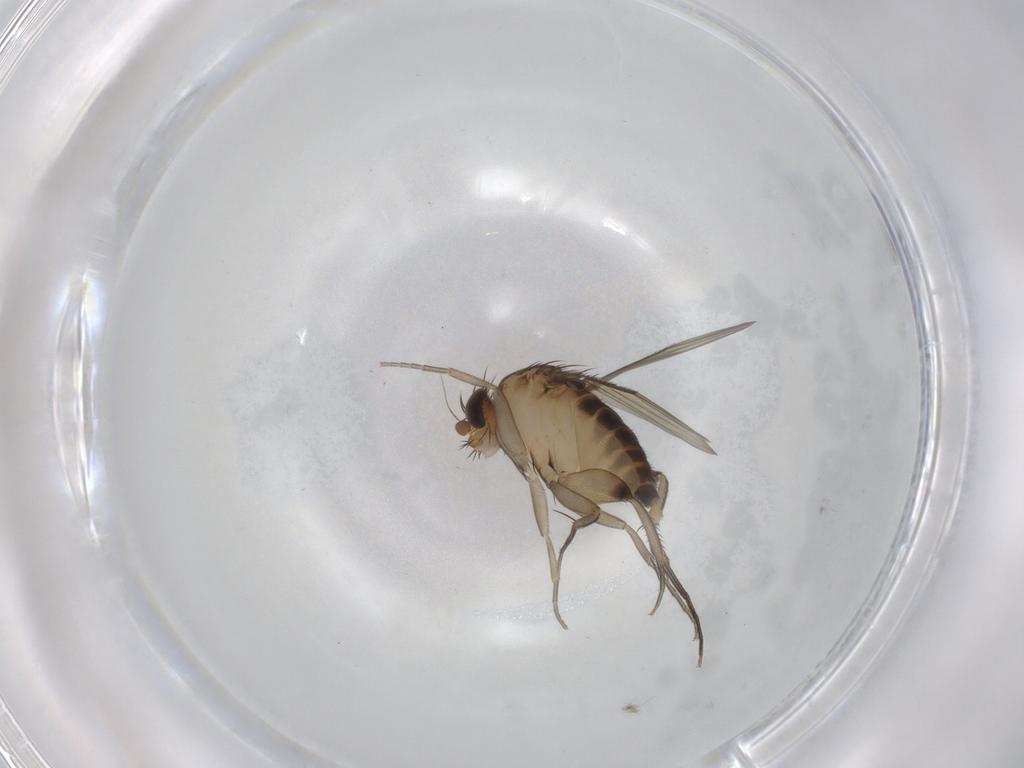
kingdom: Animalia
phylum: Arthropoda
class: Insecta
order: Diptera
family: Phoridae
